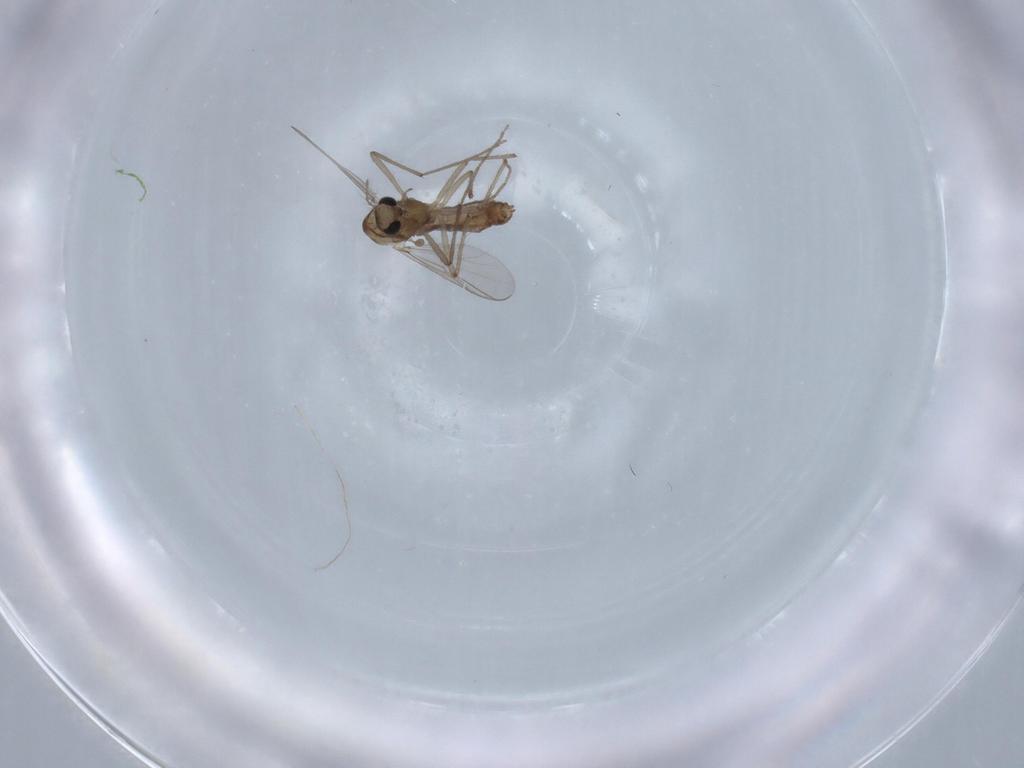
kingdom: Animalia
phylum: Arthropoda
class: Insecta
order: Diptera
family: Chironomidae
